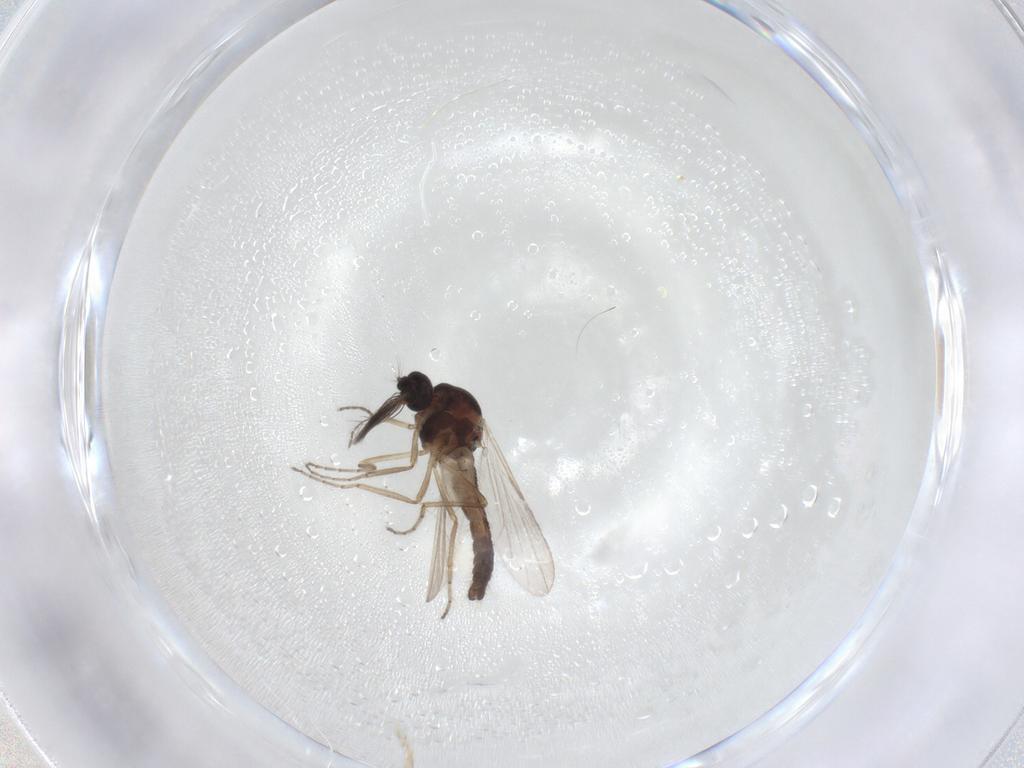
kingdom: Animalia
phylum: Arthropoda
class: Insecta
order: Diptera
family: Ceratopogonidae
